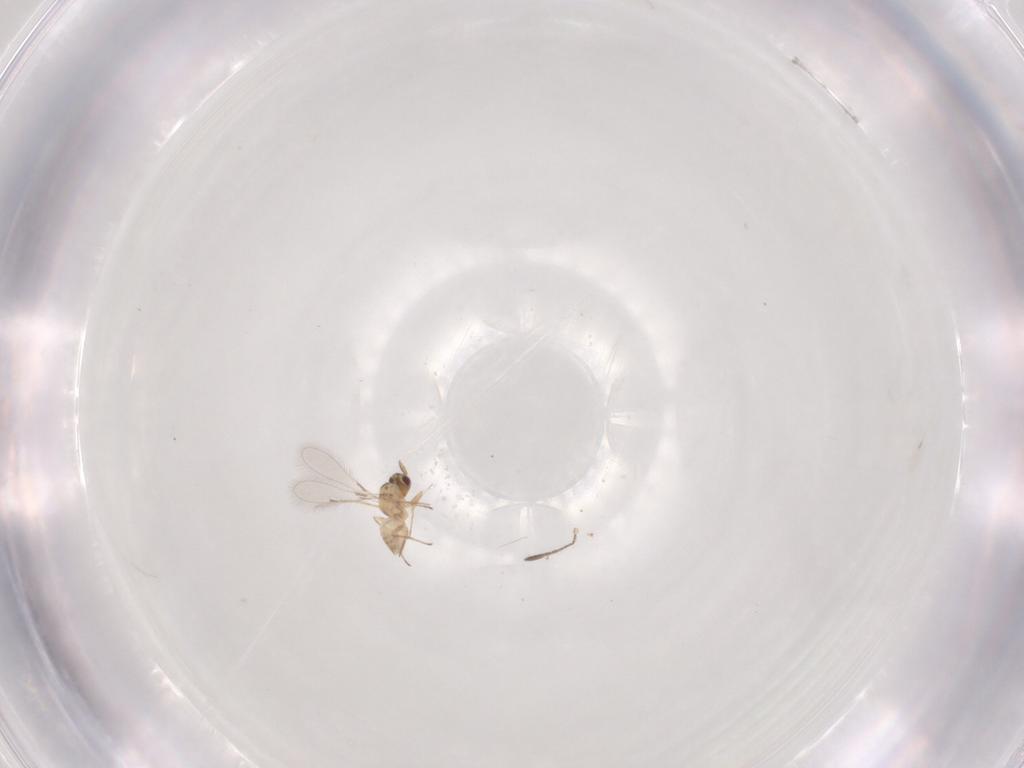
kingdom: Animalia
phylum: Arthropoda
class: Insecta
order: Diptera
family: Cecidomyiidae
